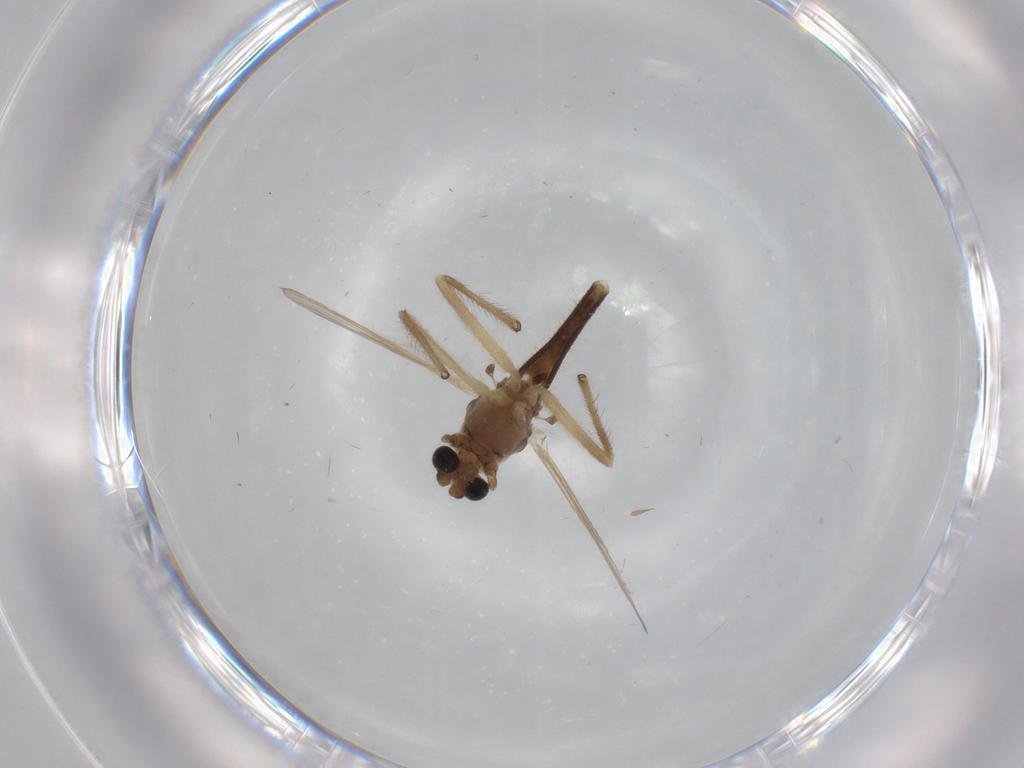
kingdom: Animalia
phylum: Arthropoda
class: Insecta
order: Diptera
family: Chironomidae
